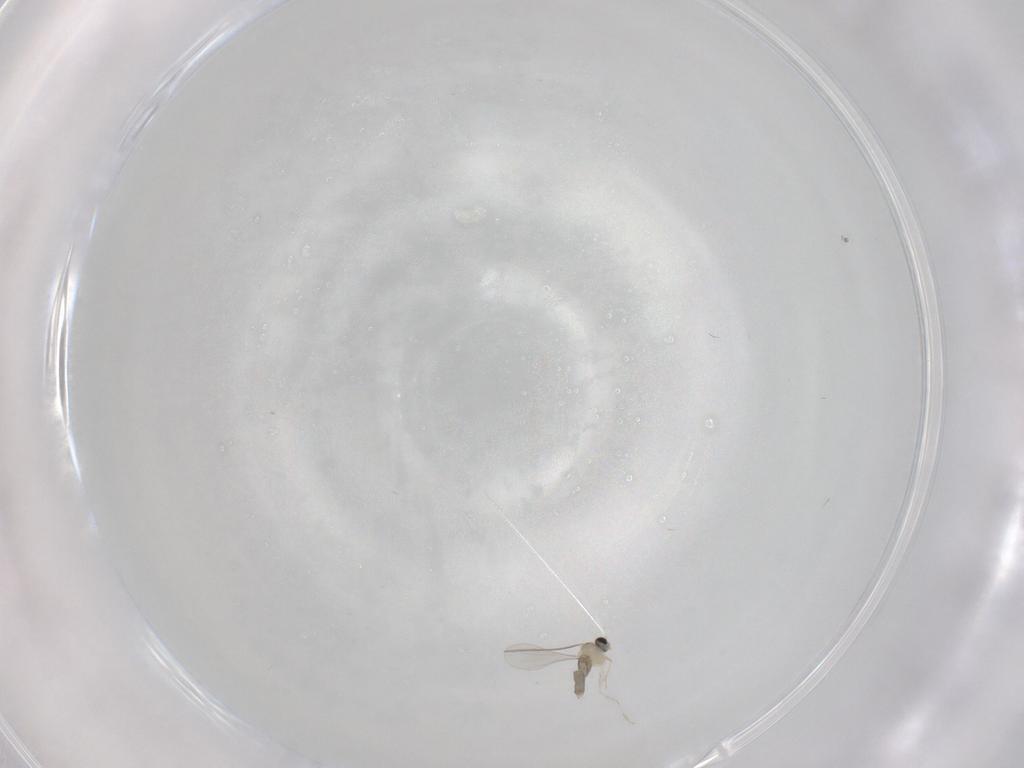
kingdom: Animalia
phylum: Arthropoda
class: Insecta
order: Diptera
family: Cecidomyiidae
